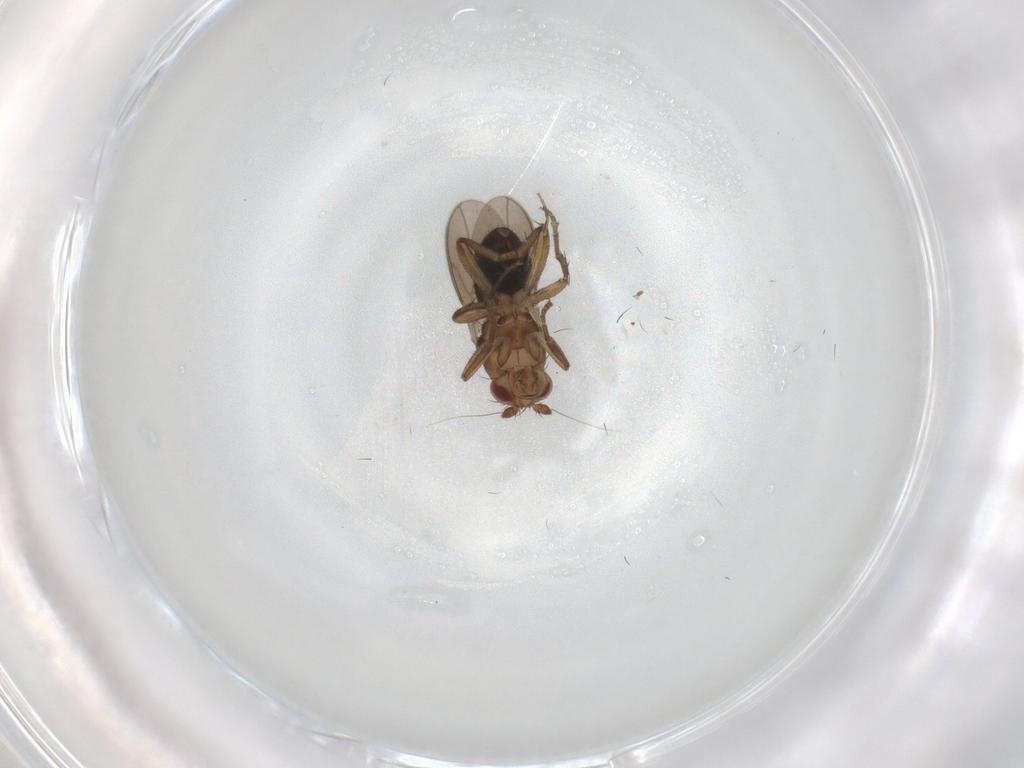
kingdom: Animalia
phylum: Arthropoda
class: Insecta
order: Diptera
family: Sphaeroceridae
